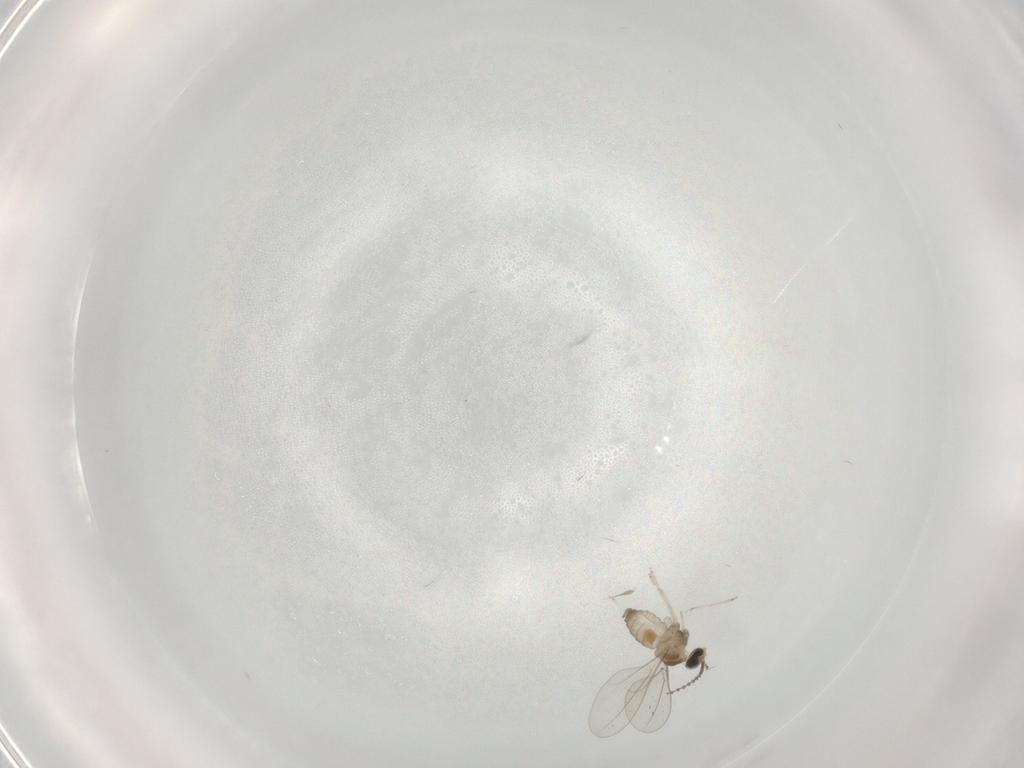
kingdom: Animalia
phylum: Arthropoda
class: Insecta
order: Diptera
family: Cecidomyiidae
